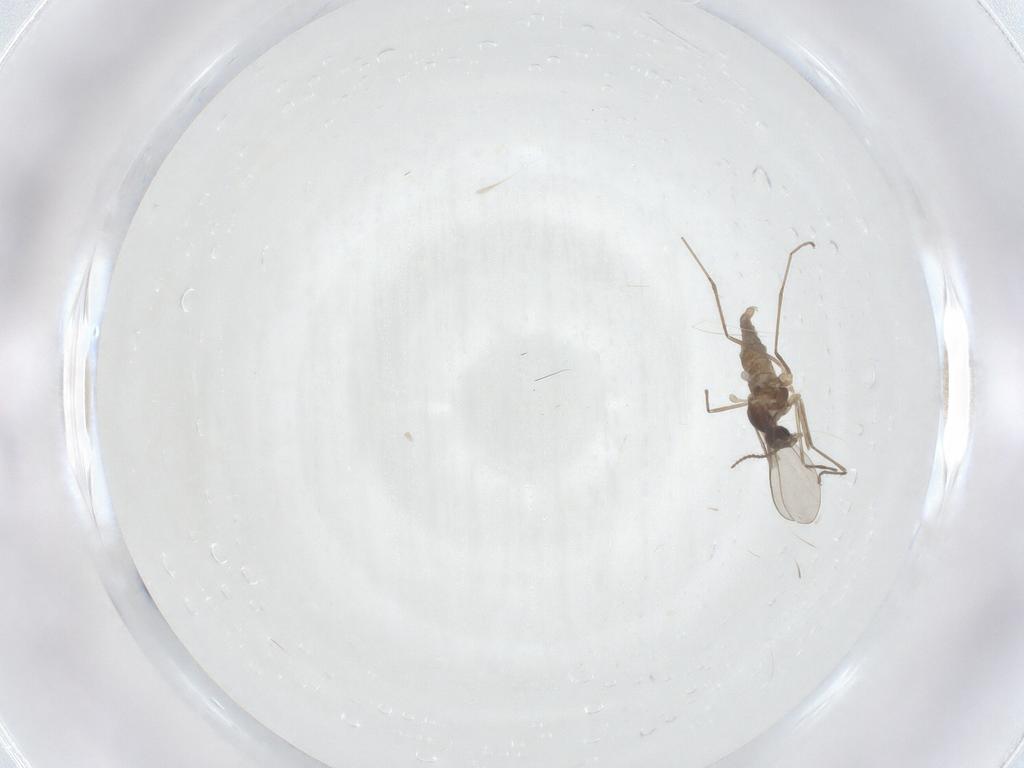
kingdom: Animalia
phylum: Arthropoda
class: Insecta
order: Diptera
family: Cecidomyiidae
